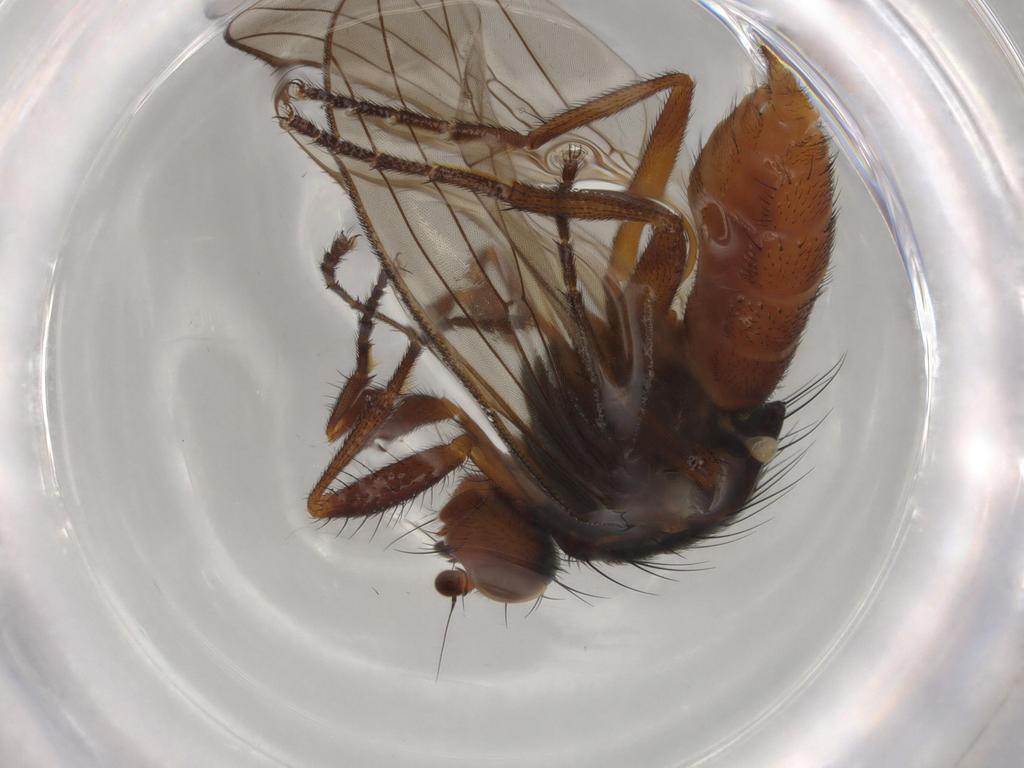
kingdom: Animalia
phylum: Arthropoda
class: Insecta
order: Diptera
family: Heleomyzidae
